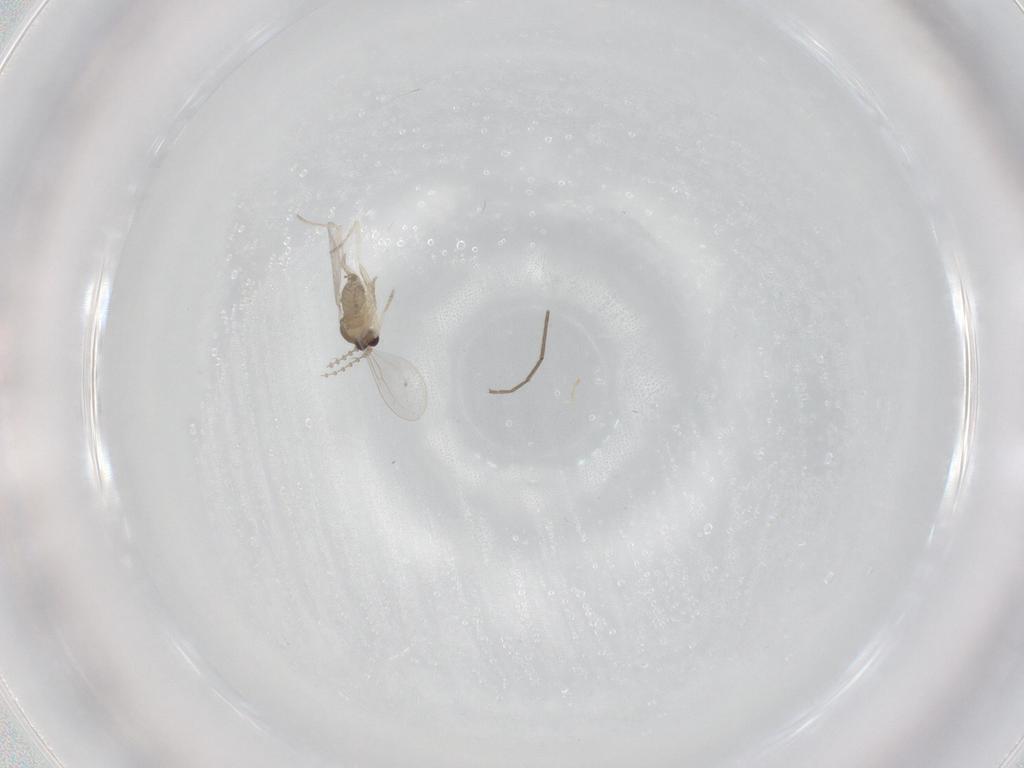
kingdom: Animalia
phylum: Arthropoda
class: Insecta
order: Diptera
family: Cecidomyiidae
